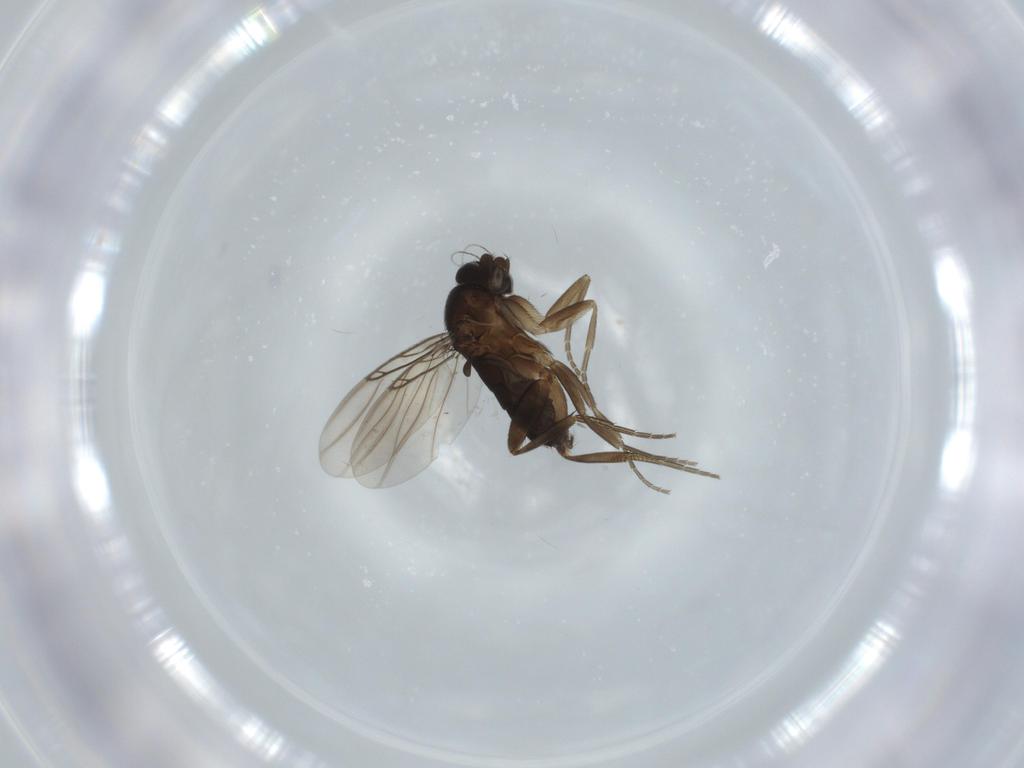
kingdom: Animalia
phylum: Arthropoda
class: Insecta
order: Diptera
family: Phoridae
